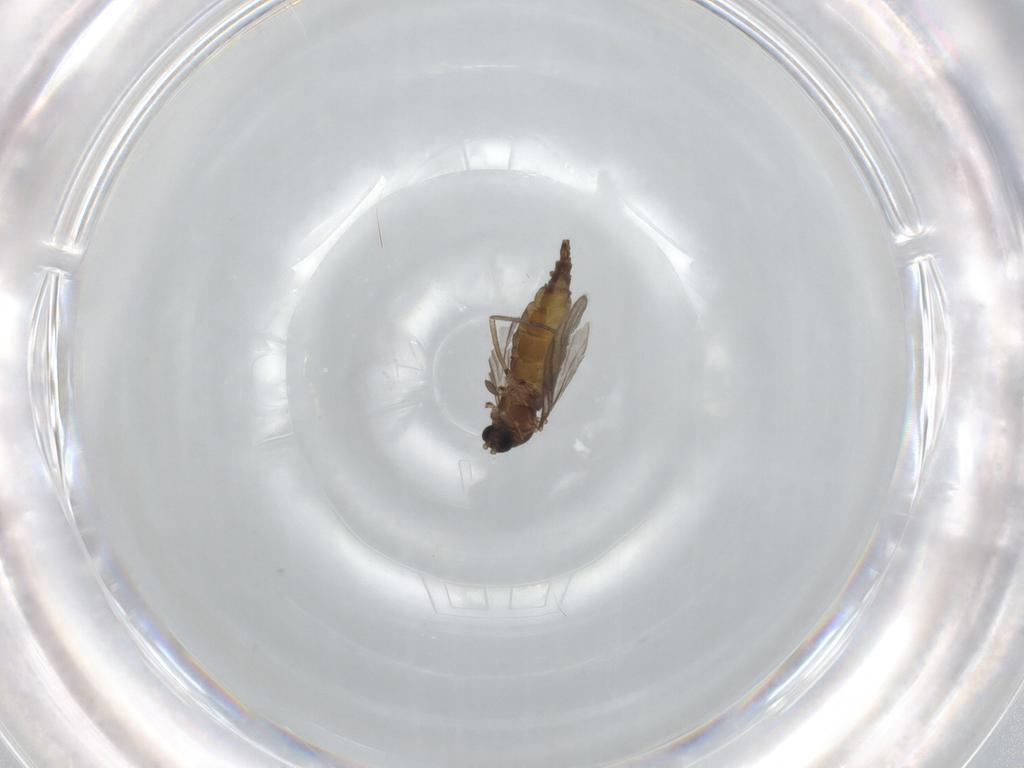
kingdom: Animalia
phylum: Arthropoda
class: Insecta
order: Diptera
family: Sciaridae
